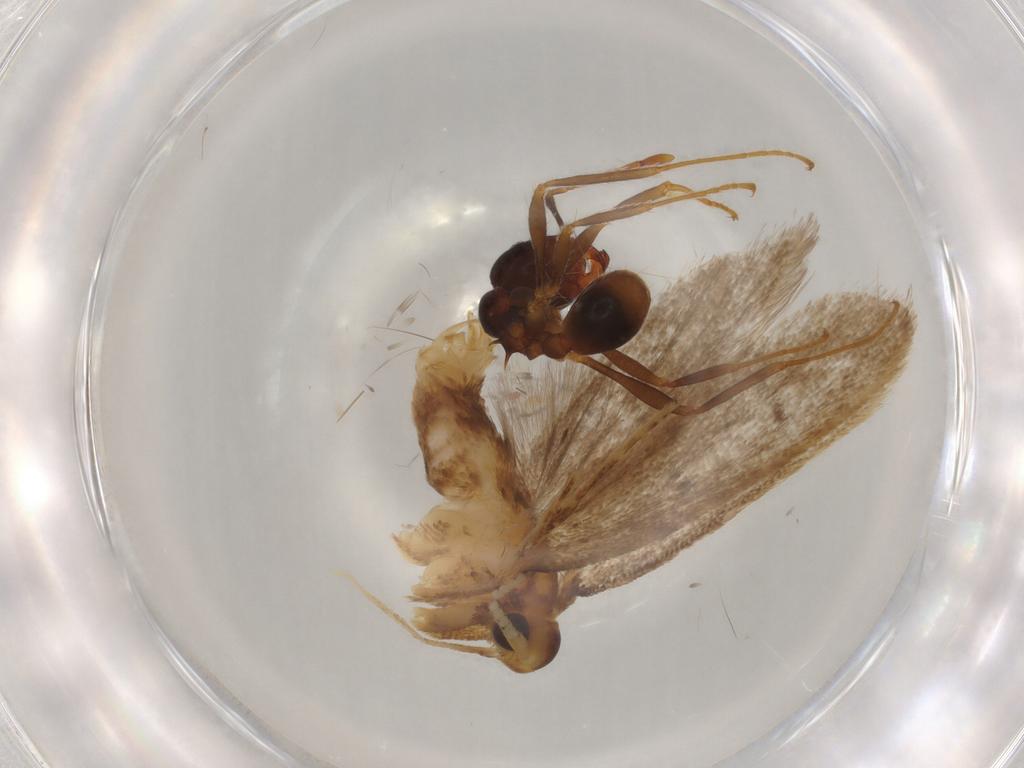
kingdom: Animalia
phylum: Arthropoda
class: Insecta
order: Lepidoptera
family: Lecithoceridae
